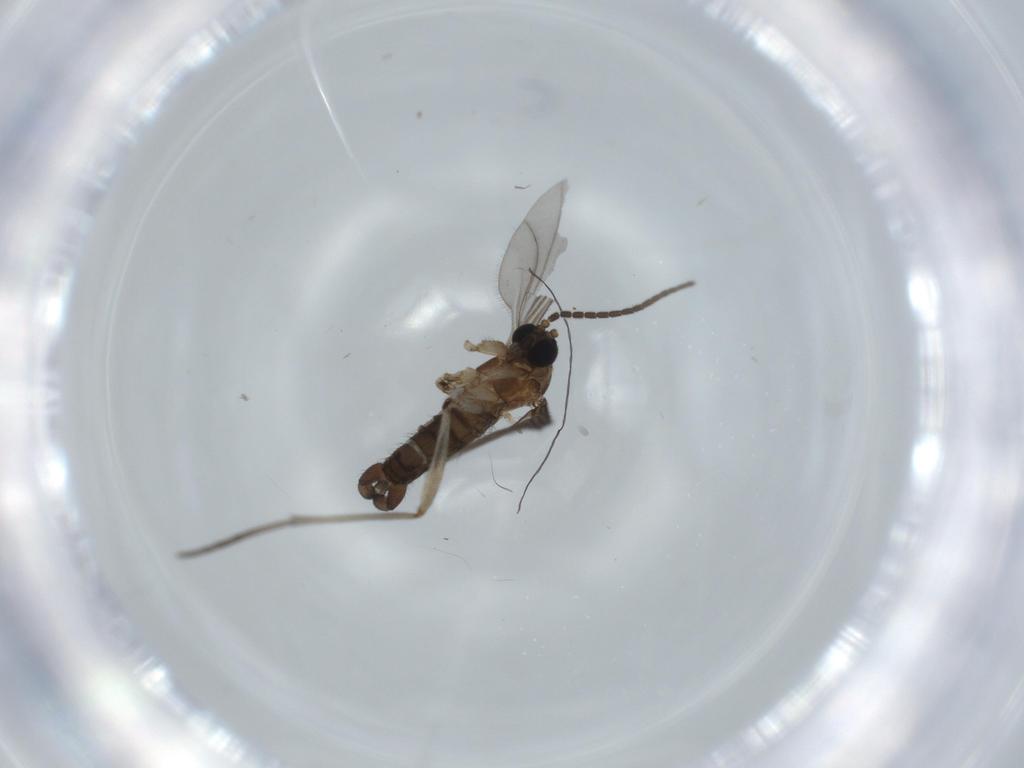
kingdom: Animalia
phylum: Arthropoda
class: Insecta
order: Diptera
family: Sciaridae
